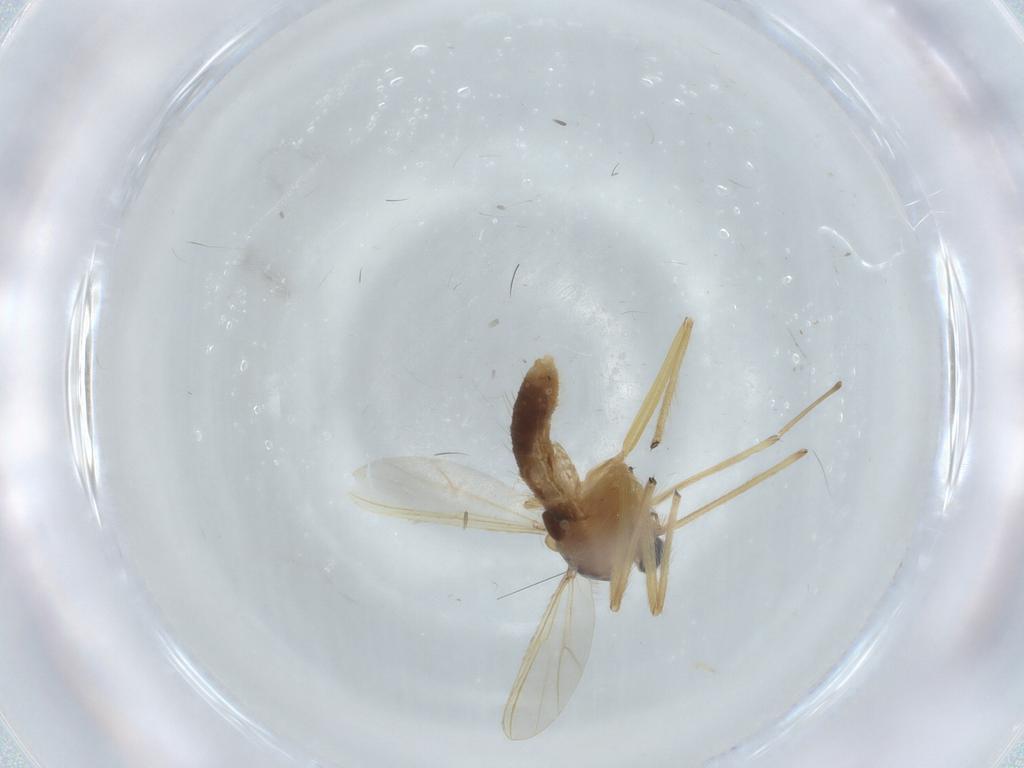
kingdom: Animalia
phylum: Arthropoda
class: Insecta
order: Diptera
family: Chironomidae
